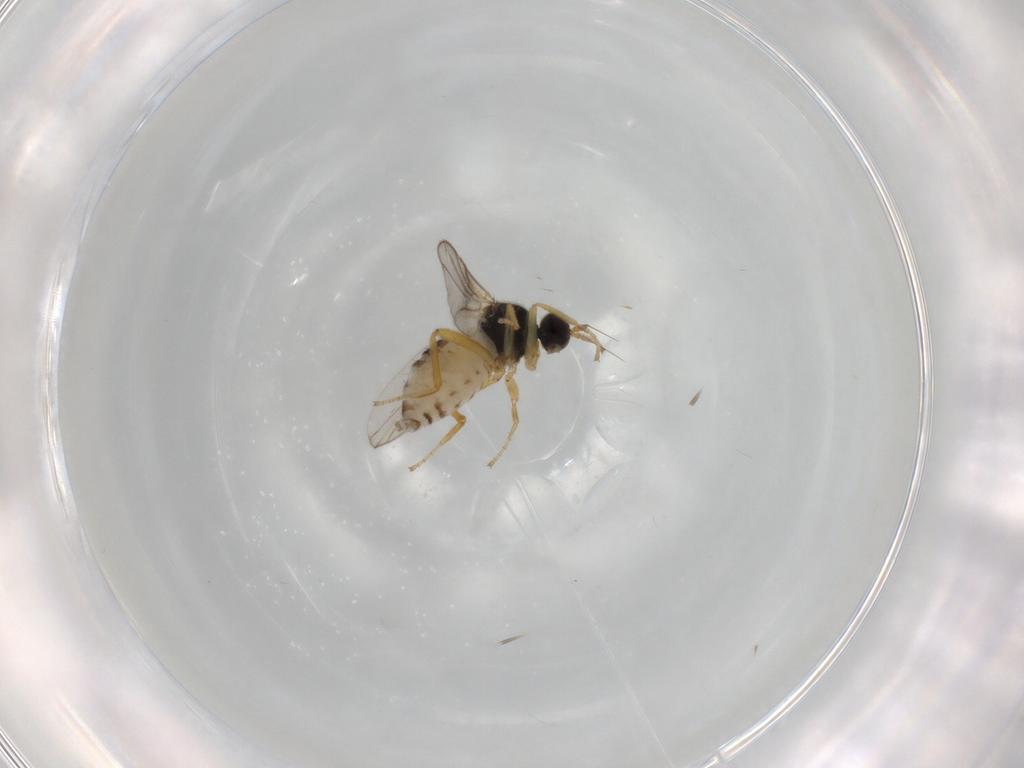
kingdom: Animalia
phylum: Arthropoda
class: Insecta
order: Diptera
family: Hybotidae
